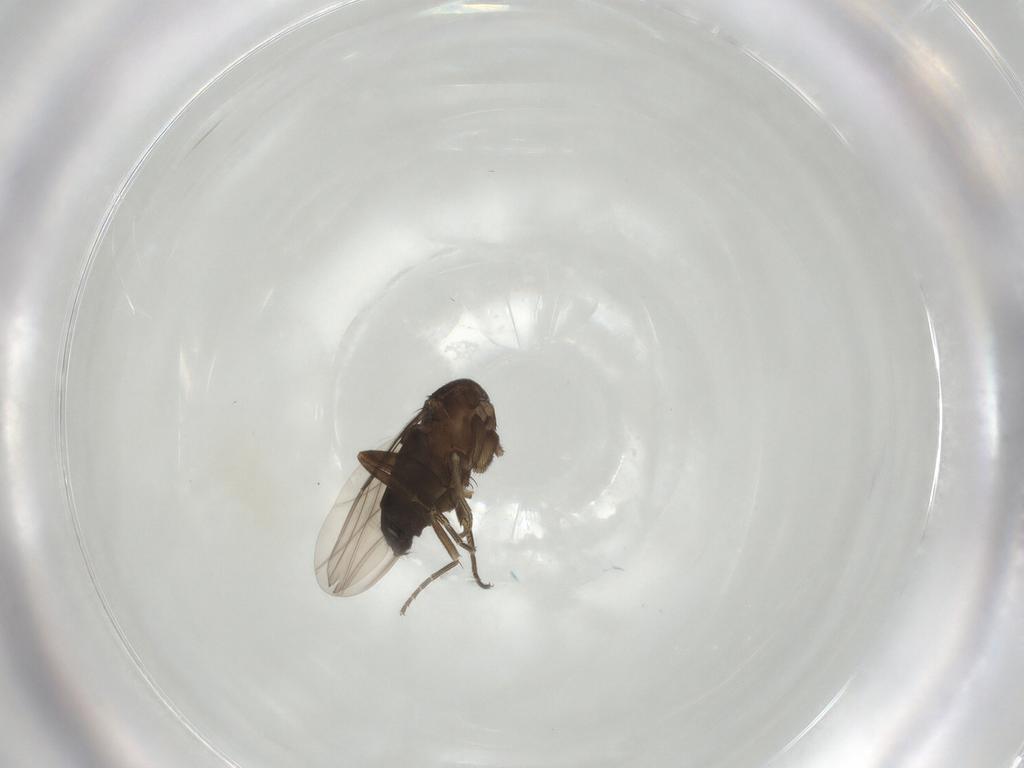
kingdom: Animalia
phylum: Arthropoda
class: Insecta
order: Diptera
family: Phoridae
